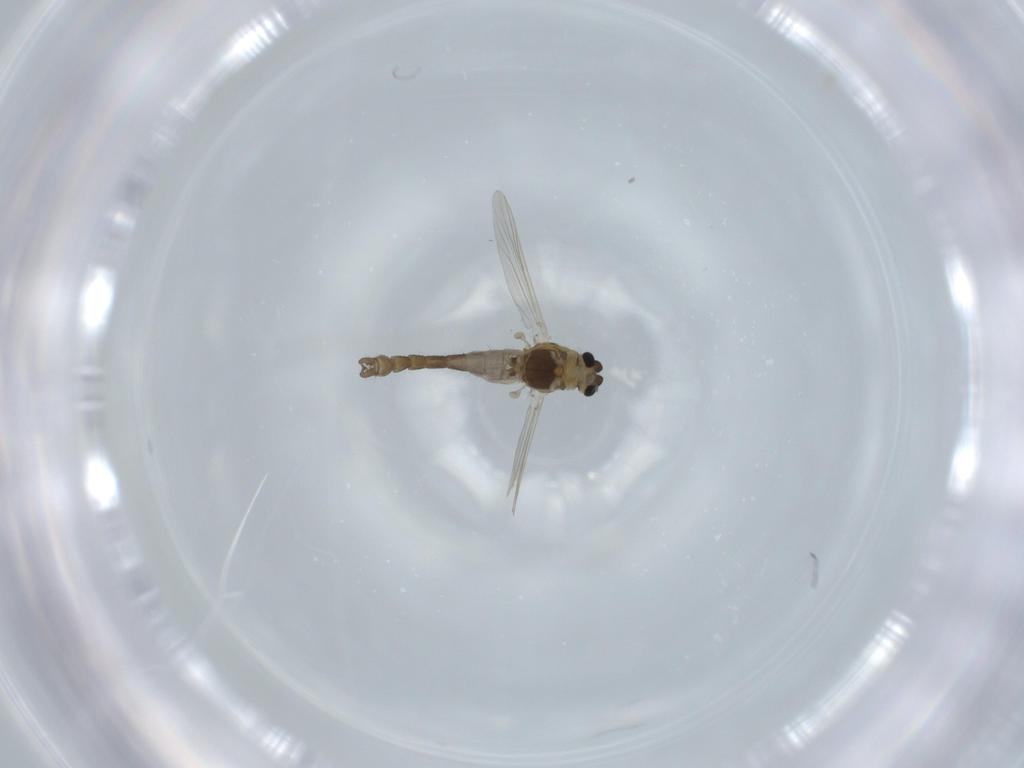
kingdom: Animalia
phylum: Arthropoda
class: Insecta
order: Diptera
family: Chironomidae
